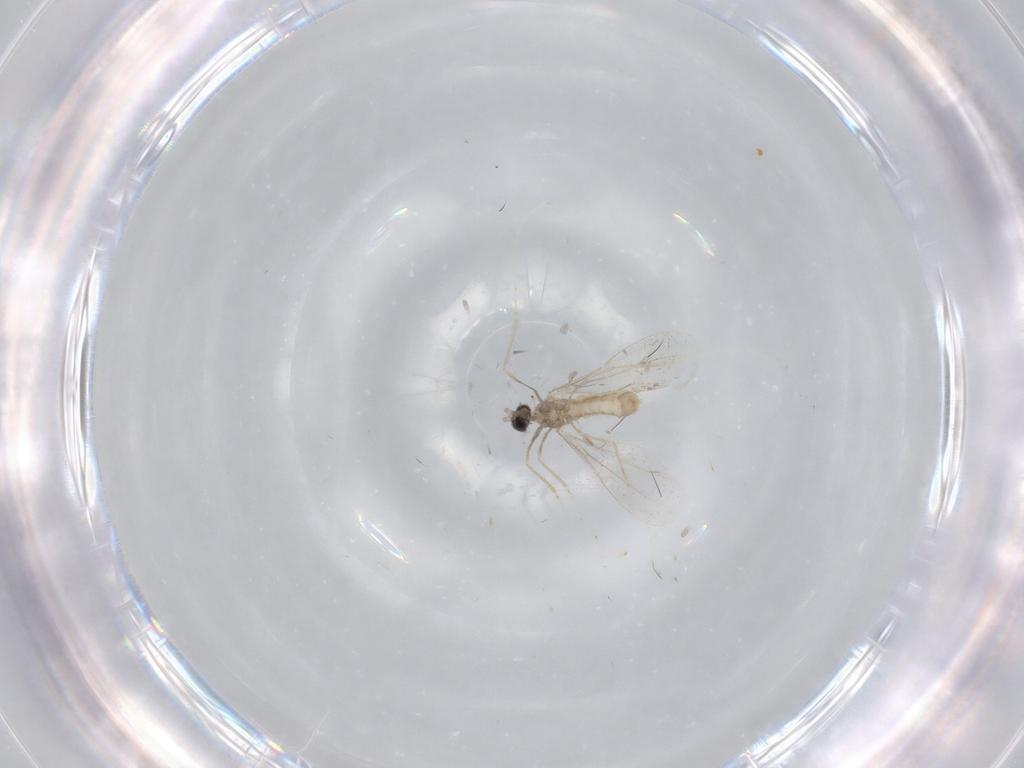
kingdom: Animalia
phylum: Arthropoda
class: Insecta
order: Diptera
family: Cecidomyiidae
